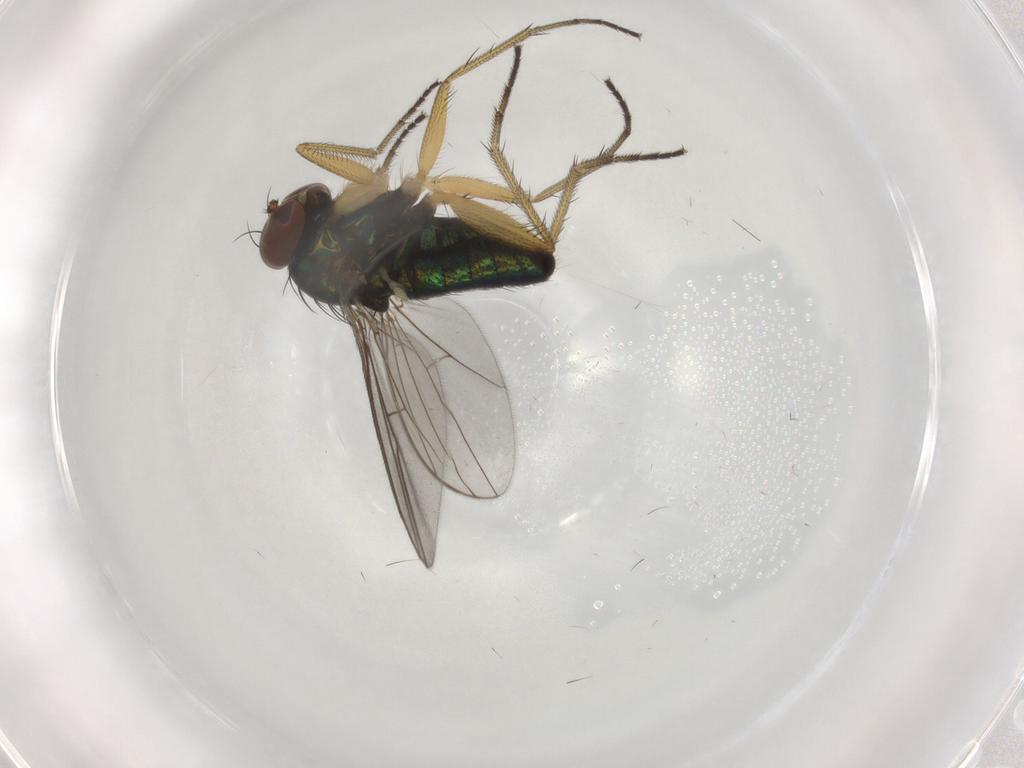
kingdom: Animalia
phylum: Arthropoda
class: Insecta
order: Diptera
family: Dolichopodidae
